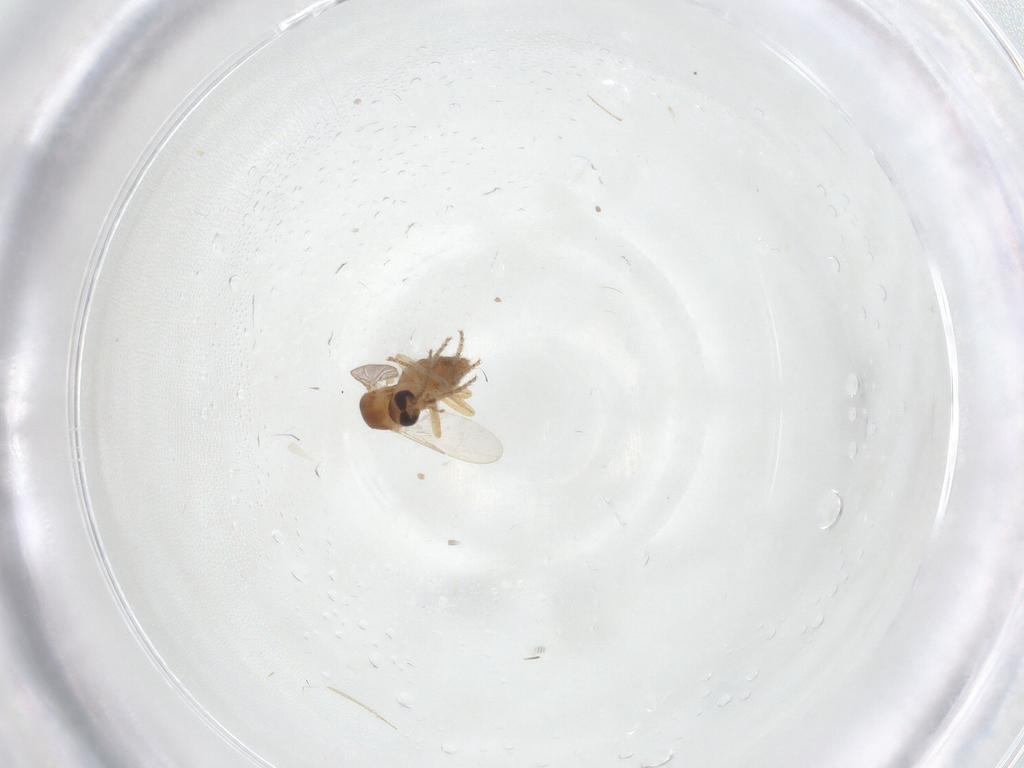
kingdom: Animalia
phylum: Arthropoda
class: Insecta
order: Diptera
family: Ceratopogonidae
